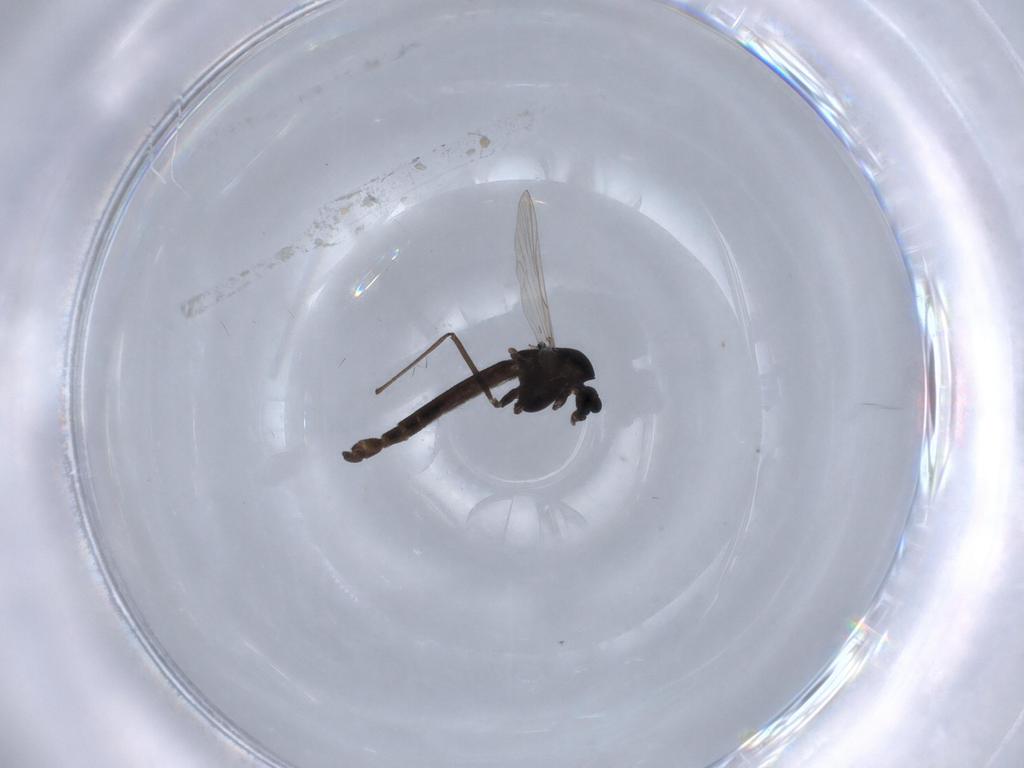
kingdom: Animalia
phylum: Arthropoda
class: Insecta
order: Diptera
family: Chironomidae
